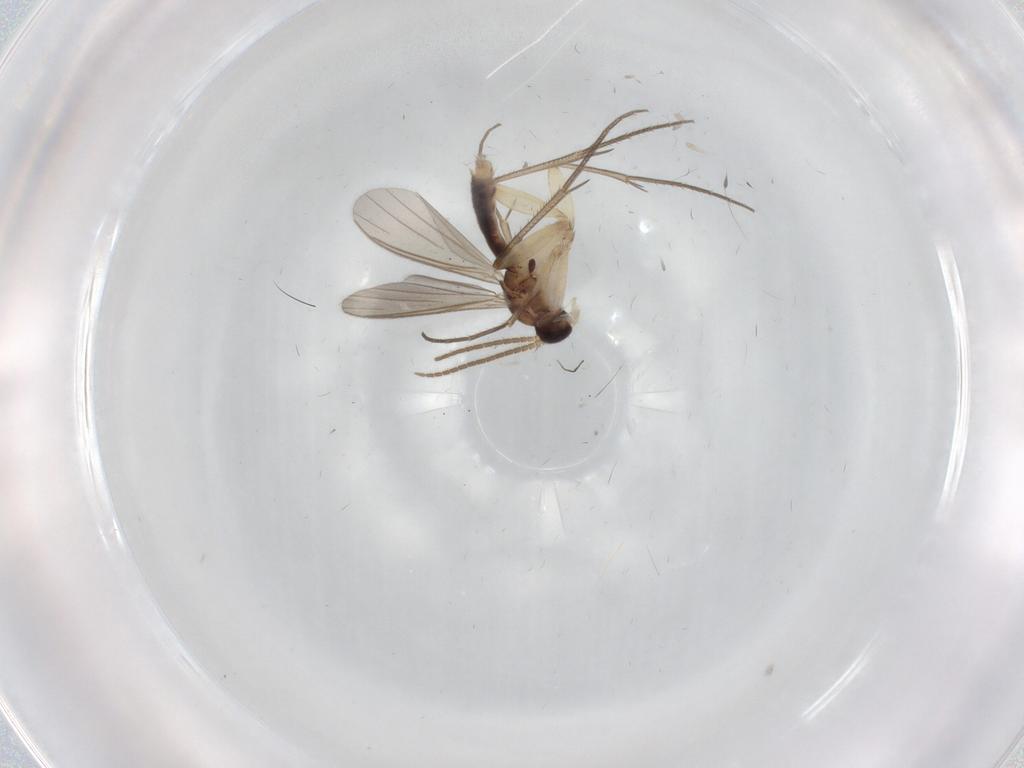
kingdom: Animalia
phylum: Arthropoda
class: Insecta
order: Diptera
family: Mycetophilidae
